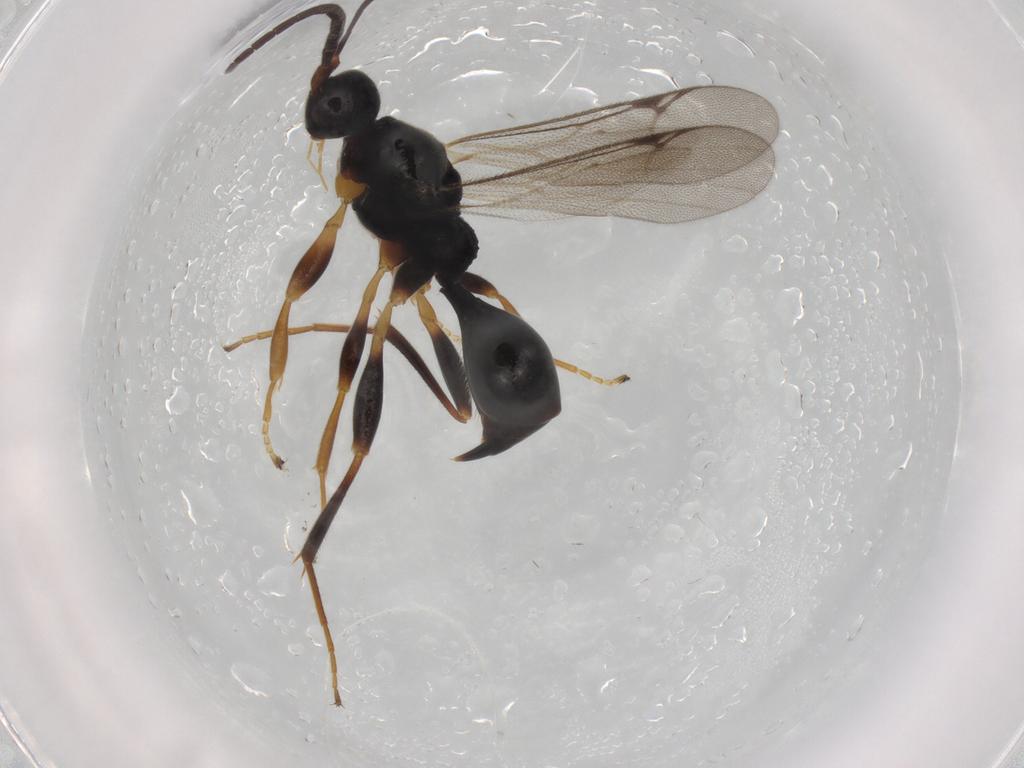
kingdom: Animalia
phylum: Arthropoda
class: Insecta
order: Hymenoptera
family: Proctotrupidae
